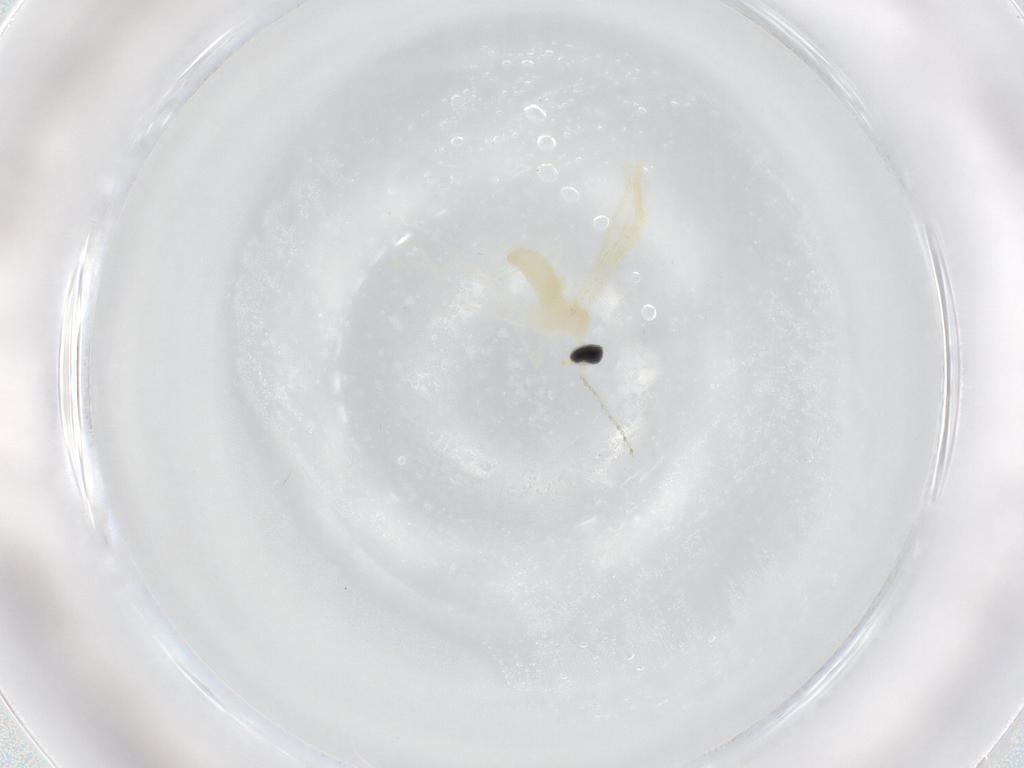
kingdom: Animalia
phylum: Arthropoda
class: Insecta
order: Diptera
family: Cecidomyiidae
